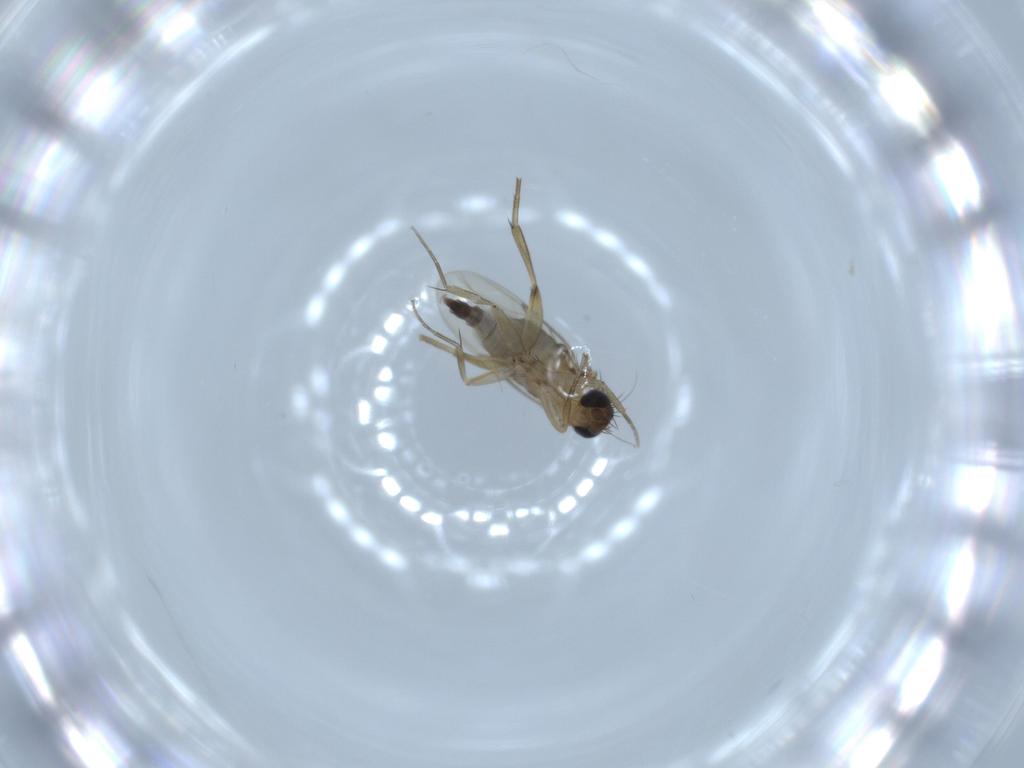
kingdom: Animalia
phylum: Arthropoda
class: Insecta
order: Diptera
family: Phoridae
